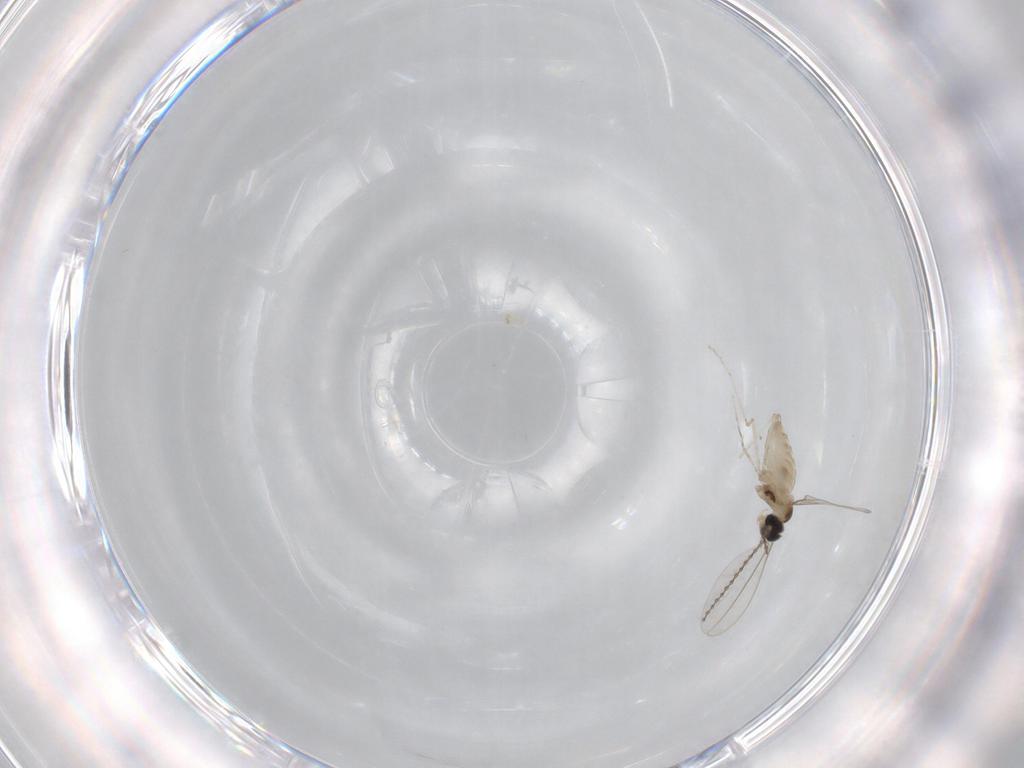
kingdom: Animalia
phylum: Arthropoda
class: Insecta
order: Diptera
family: Cecidomyiidae
